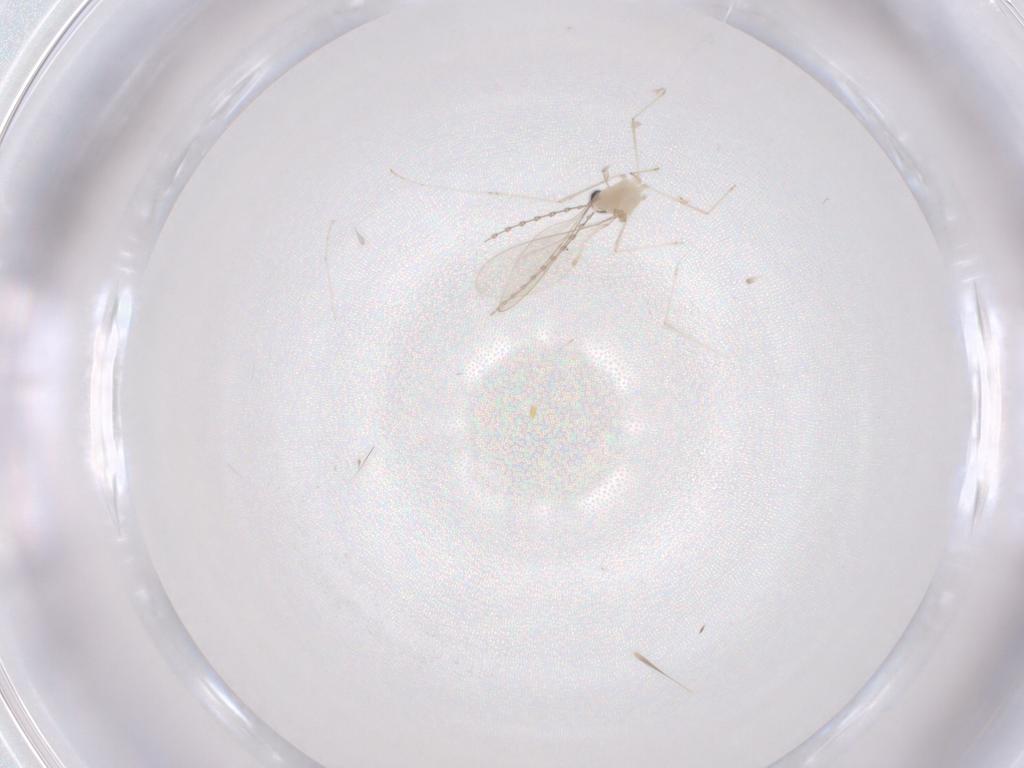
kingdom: Animalia
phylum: Arthropoda
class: Insecta
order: Diptera
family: Cecidomyiidae
